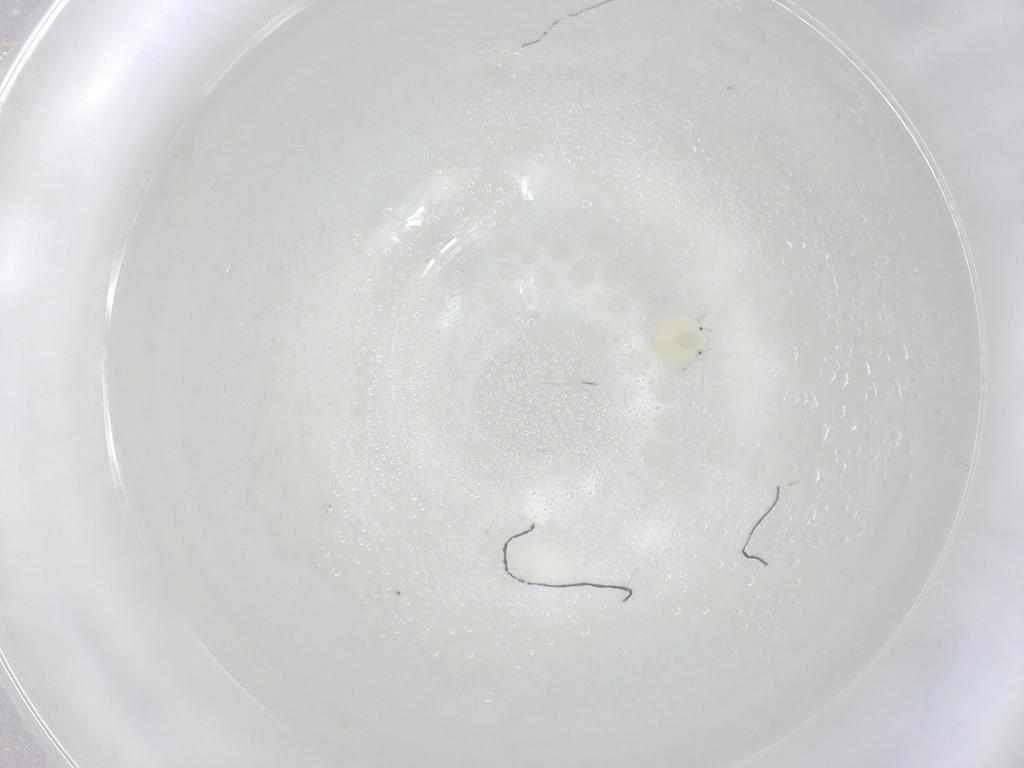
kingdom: Animalia
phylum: Arthropoda
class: Arachnida
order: Trombidiformes
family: Arrenuridae
